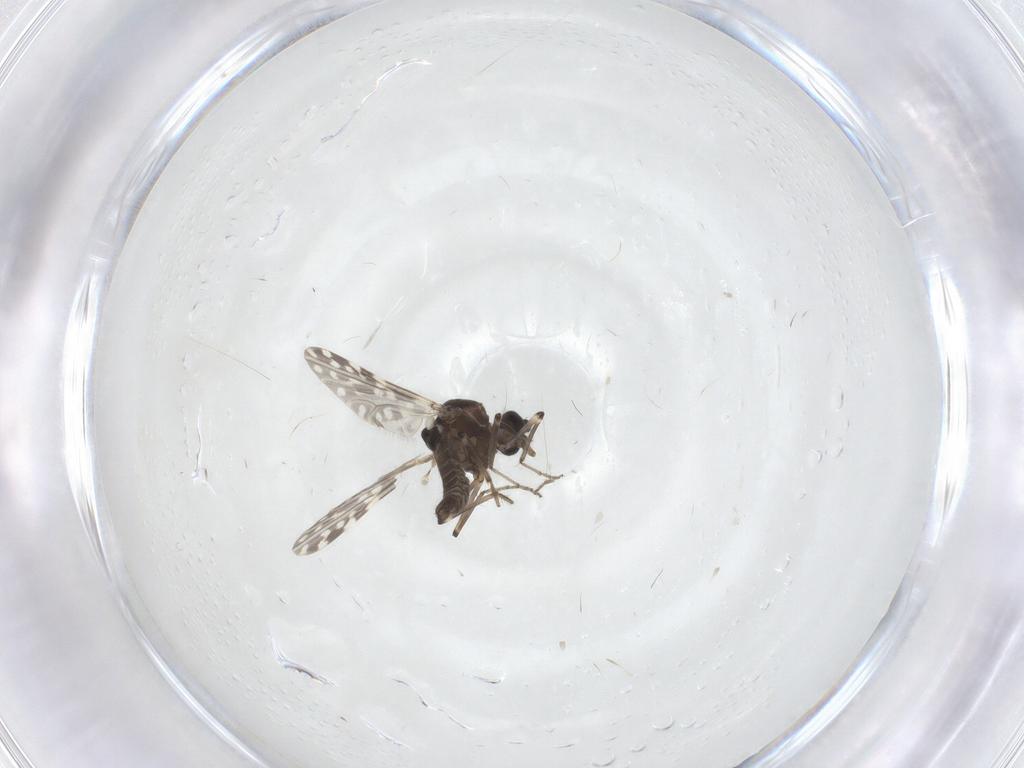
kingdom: Animalia
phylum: Arthropoda
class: Insecta
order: Diptera
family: Ceratopogonidae
